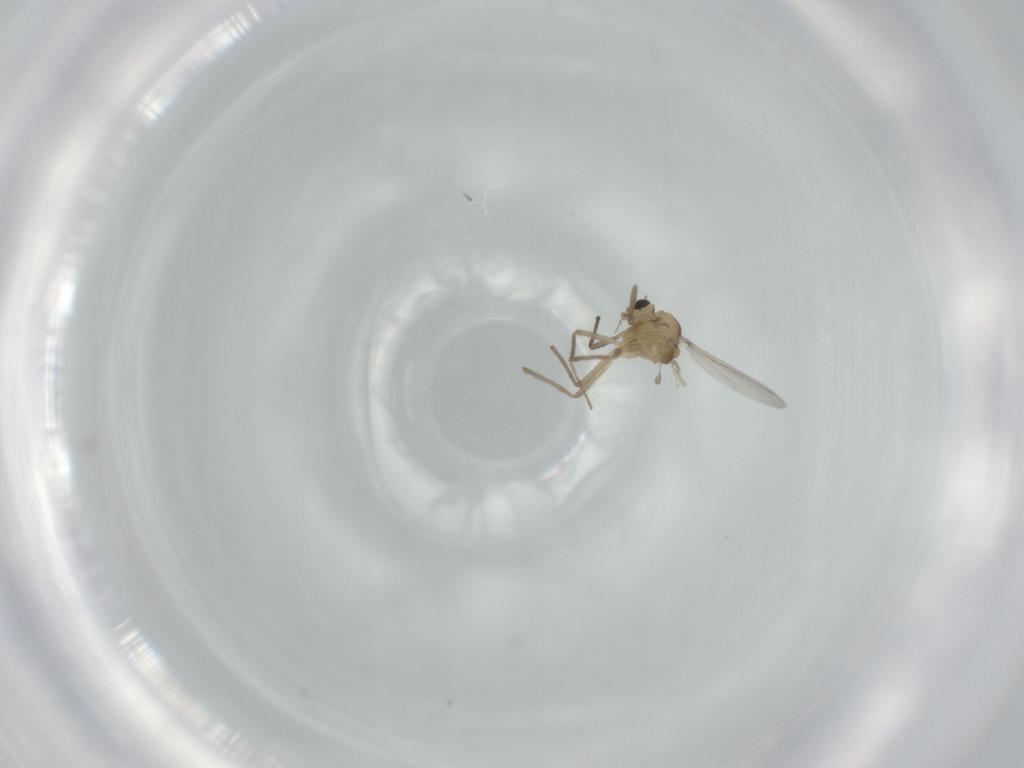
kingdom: Animalia
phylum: Arthropoda
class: Insecta
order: Diptera
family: Chironomidae
